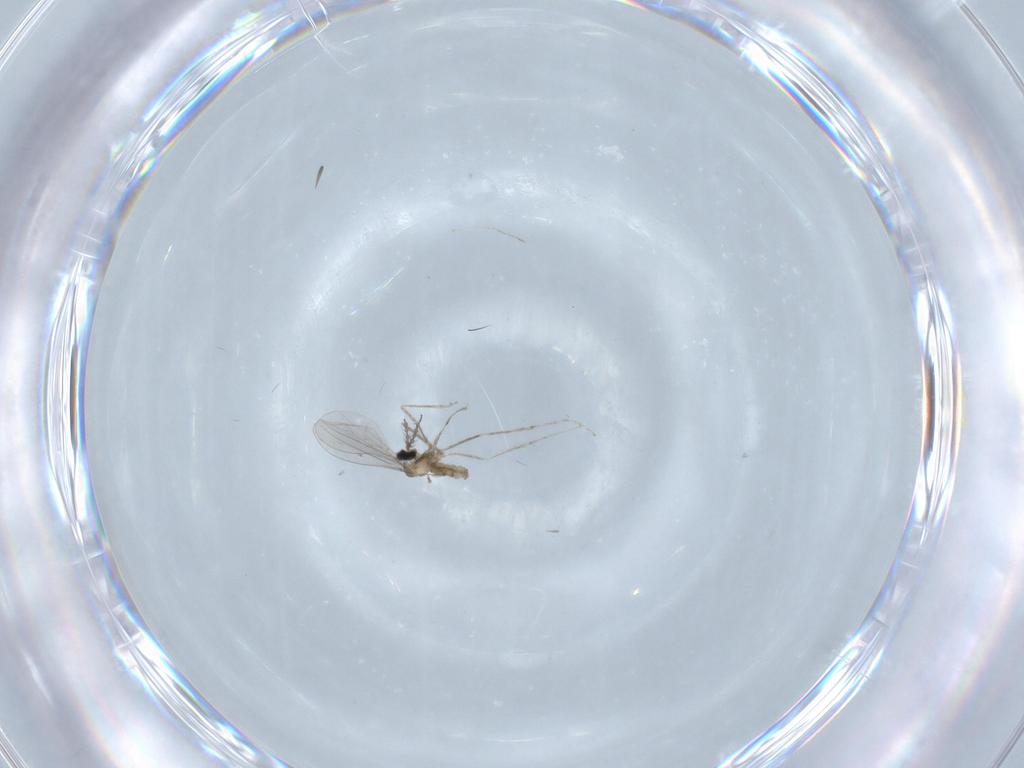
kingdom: Animalia
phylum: Arthropoda
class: Insecta
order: Diptera
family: Cecidomyiidae
